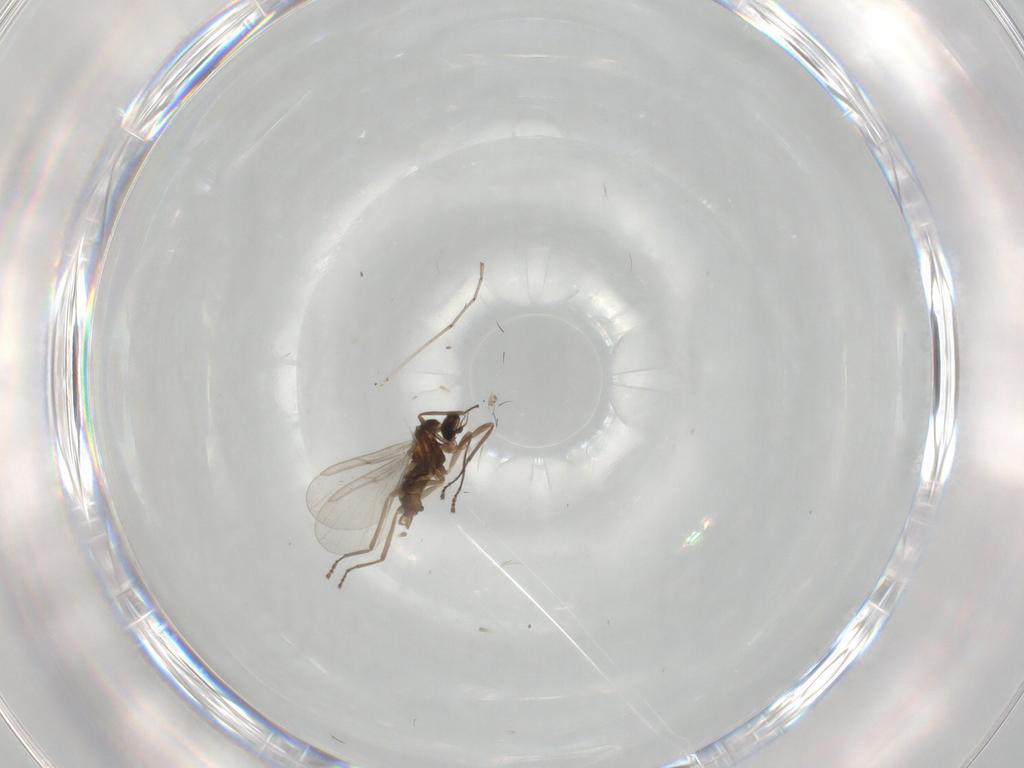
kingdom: Animalia
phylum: Arthropoda
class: Insecta
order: Diptera
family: Cecidomyiidae
